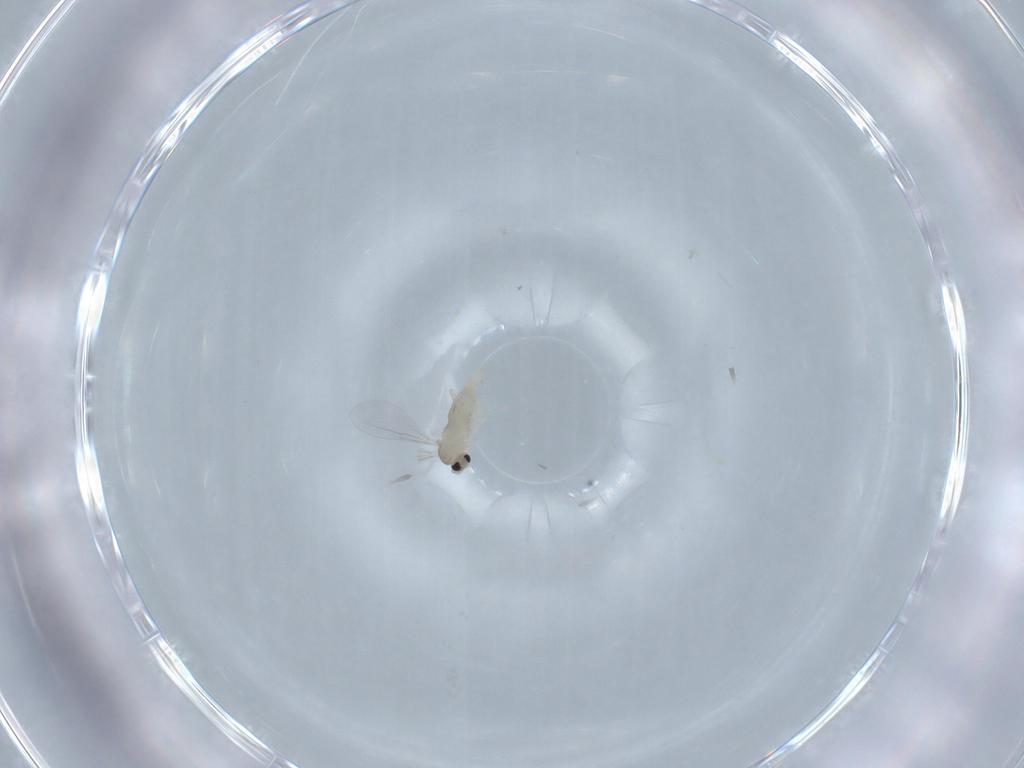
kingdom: Animalia
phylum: Arthropoda
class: Insecta
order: Diptera
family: Cecidomyiidae
